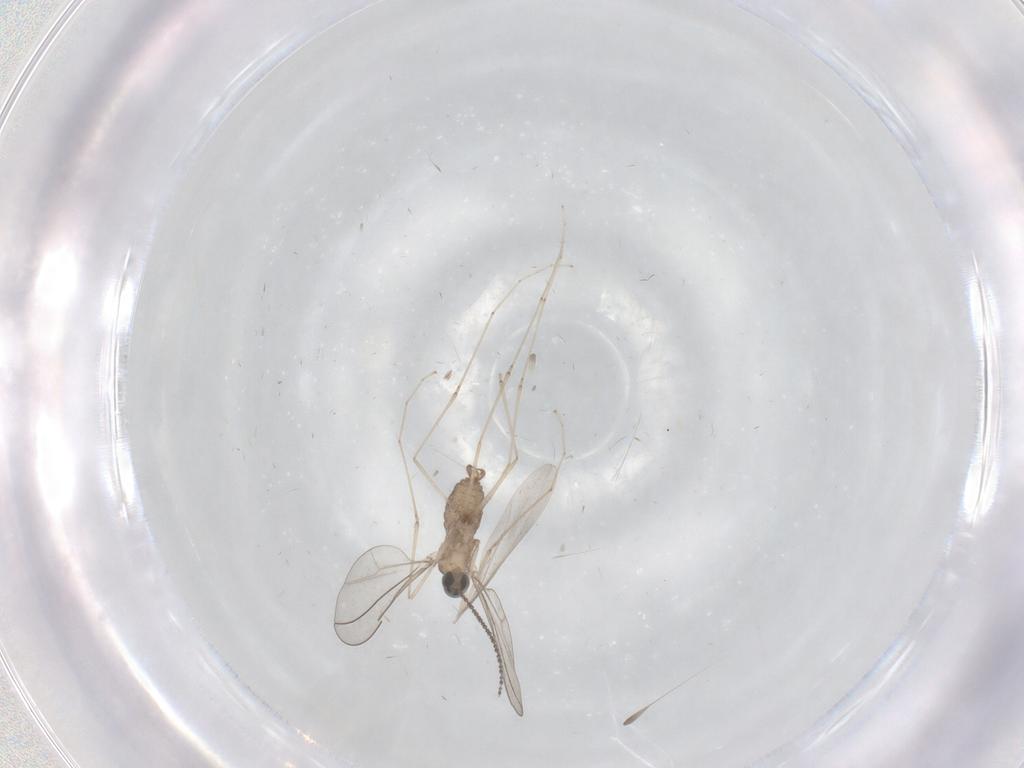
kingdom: Animalia
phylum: Arthropoda
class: Insecta
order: Diptera
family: Cecidomyiidae
